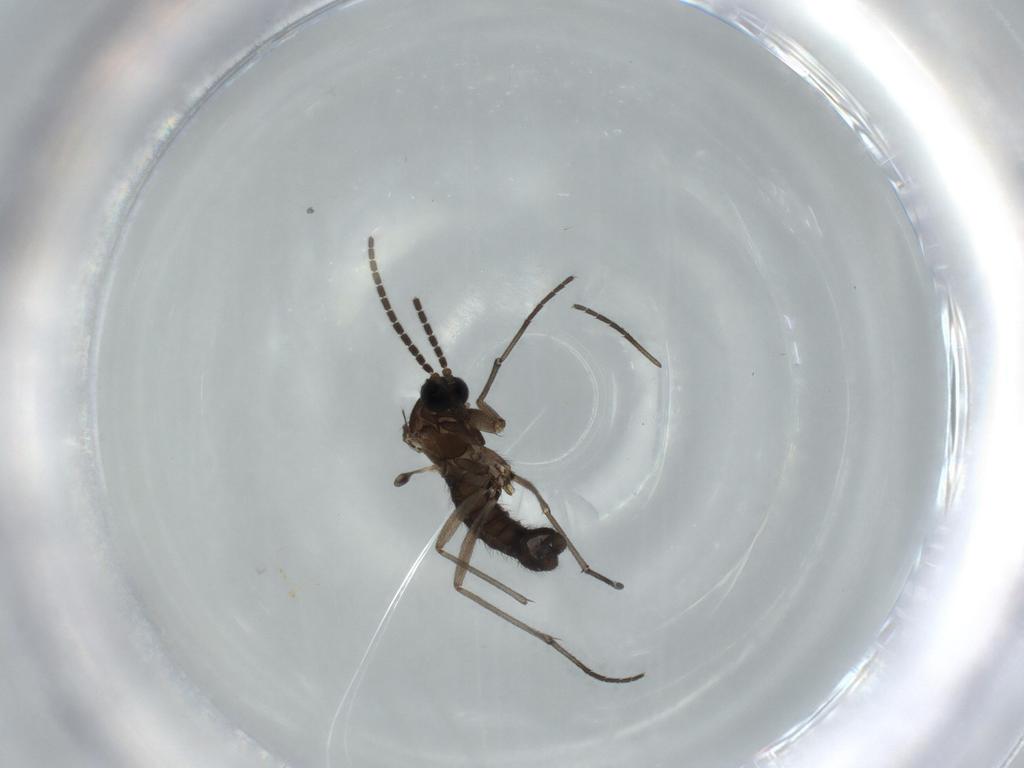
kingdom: Animalia
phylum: Arthropoda
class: Insecta
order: Diptera
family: Sciaridae
